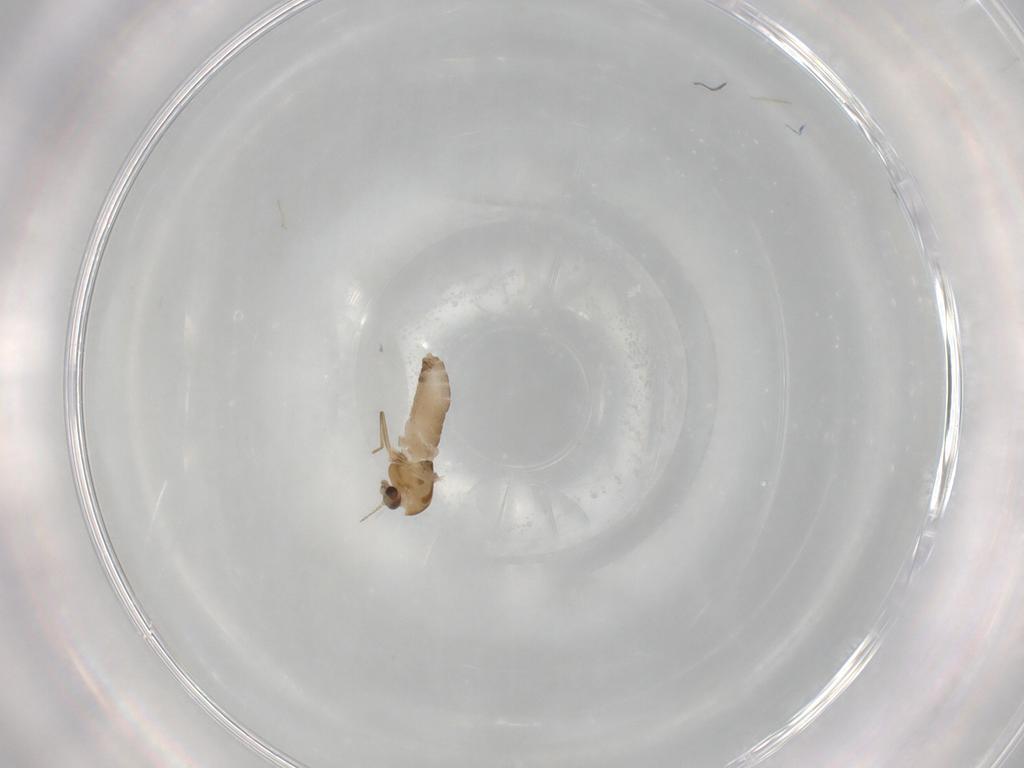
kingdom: Animalia
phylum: Arthropoda
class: Insecta
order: Diptera
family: Chironomidae
